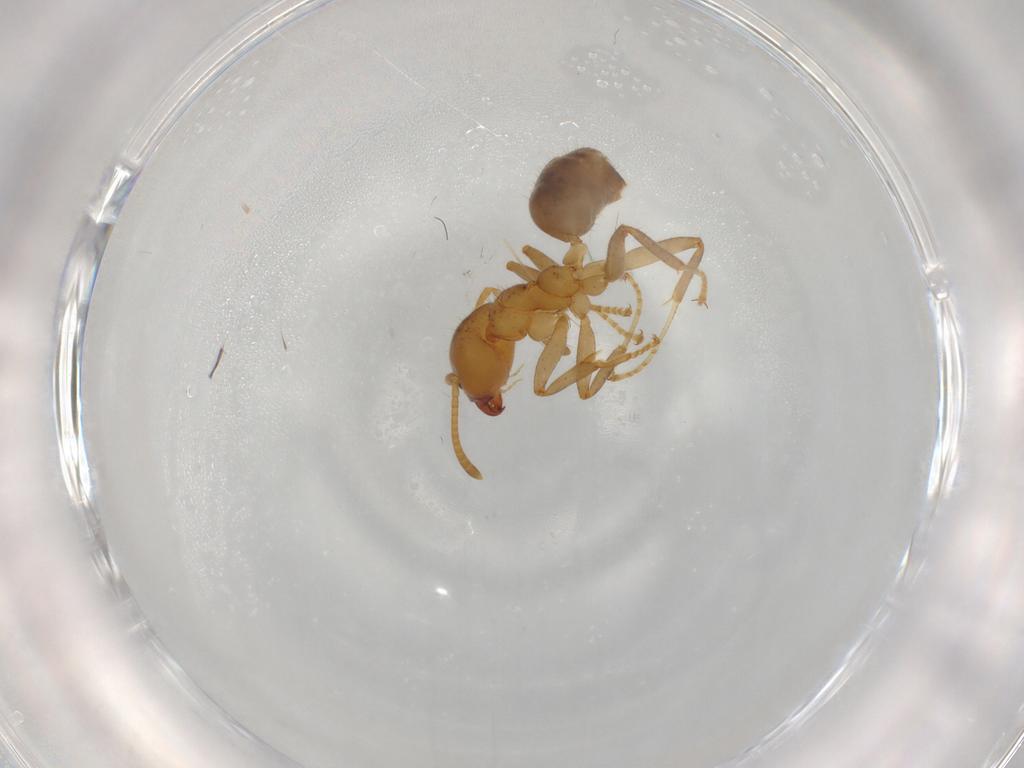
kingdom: Animalia
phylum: Arthropoda
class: Insecta
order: Hymenoptera
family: Formicidae
